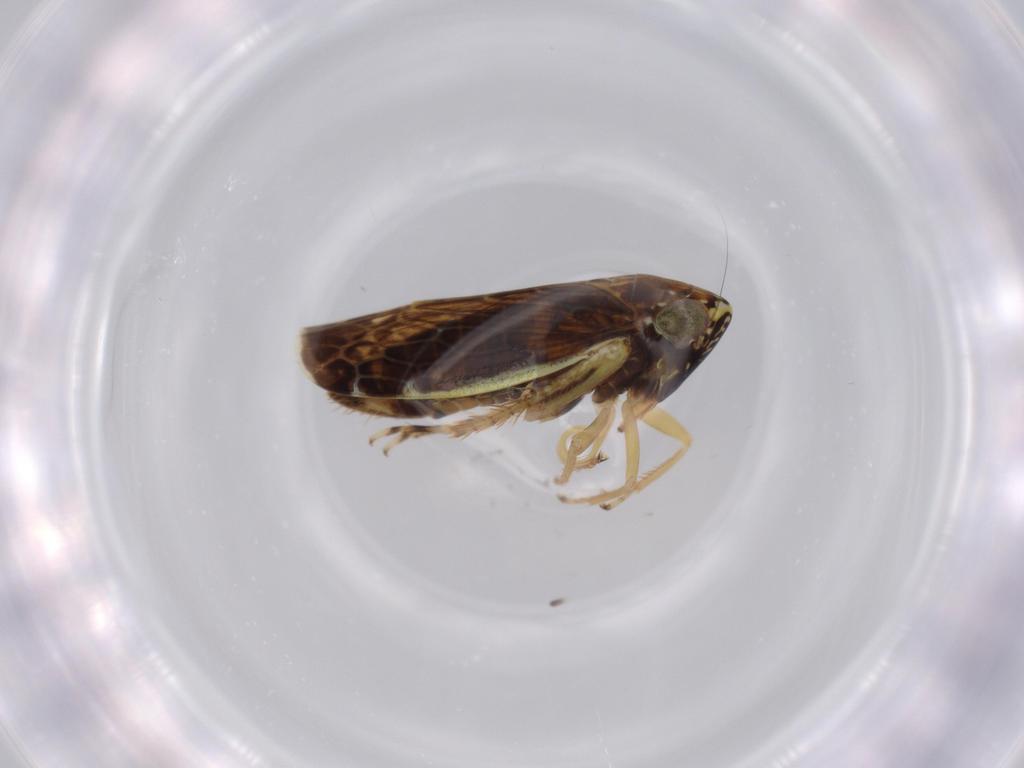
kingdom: Animalia
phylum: Arthropoda
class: Insecta
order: Hemiptera
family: Cicadellidae
